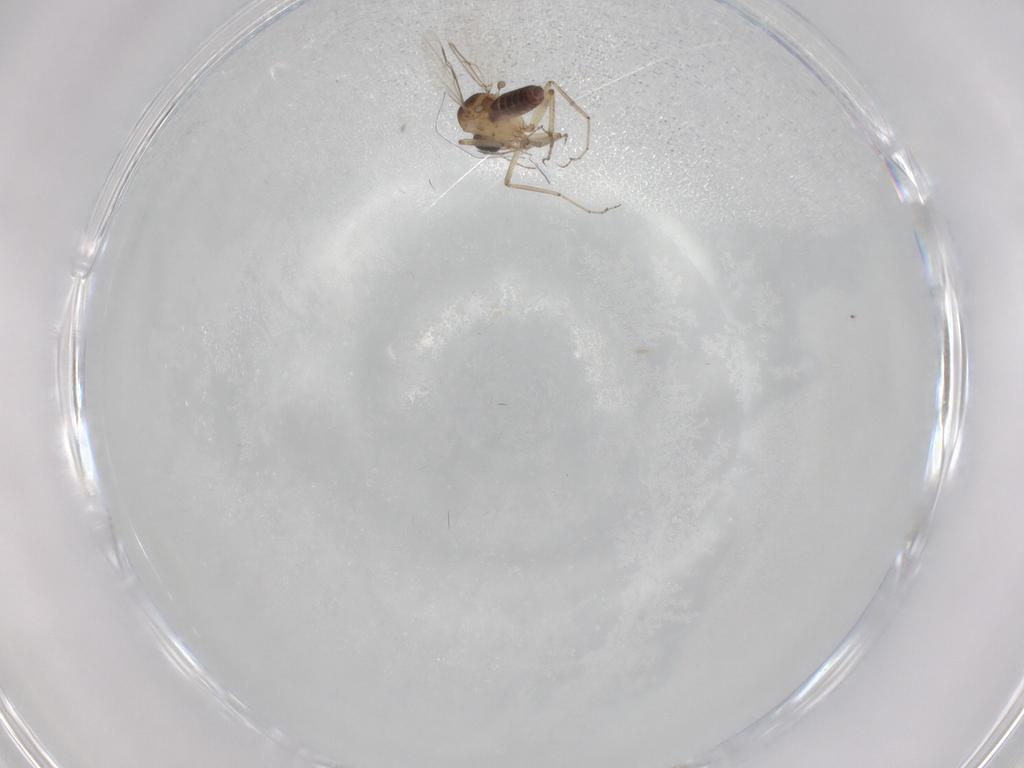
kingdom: Animalia
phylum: Arthropoda
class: Insecta
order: Diptera
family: Ceratopogonidae
